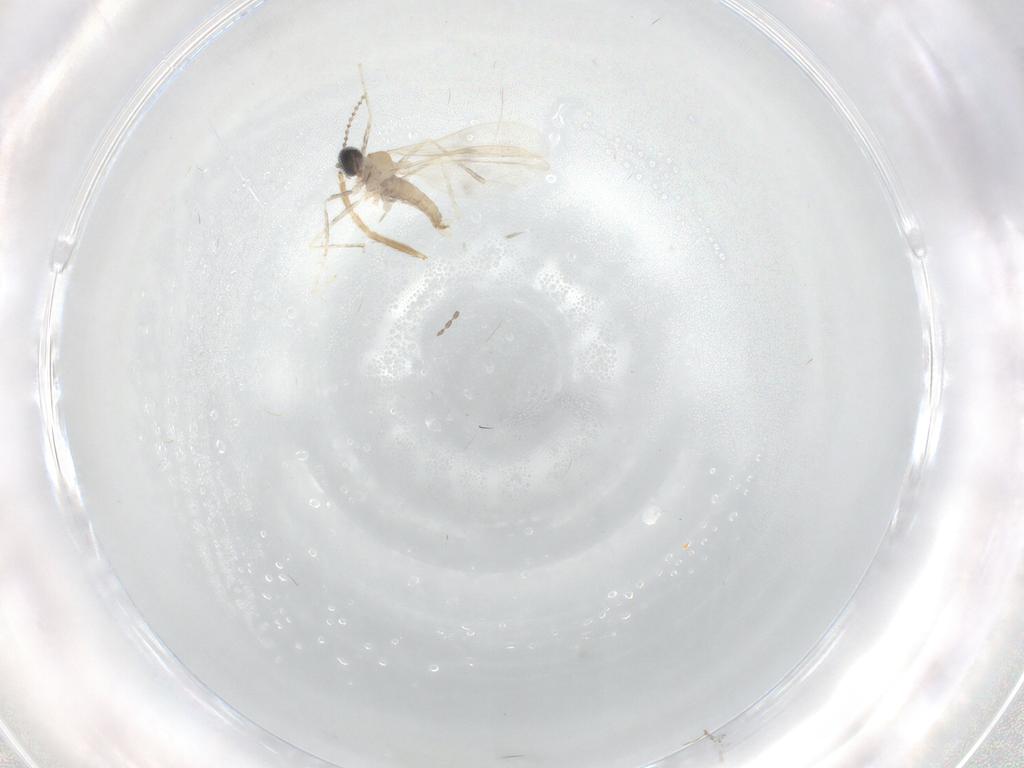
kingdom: Animalia
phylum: Arthropoda
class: Insecta
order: Diptera
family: Chironomidae
